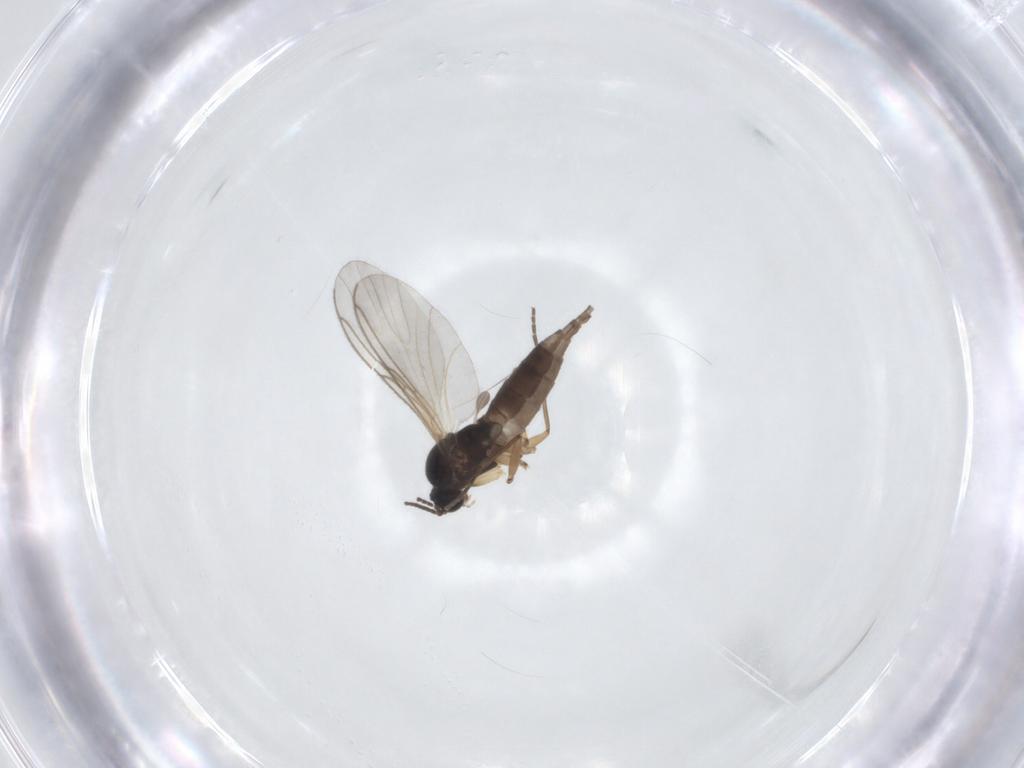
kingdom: Animalia
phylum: Arthropoda
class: Insecta
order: Diptera
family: Sciaridae
